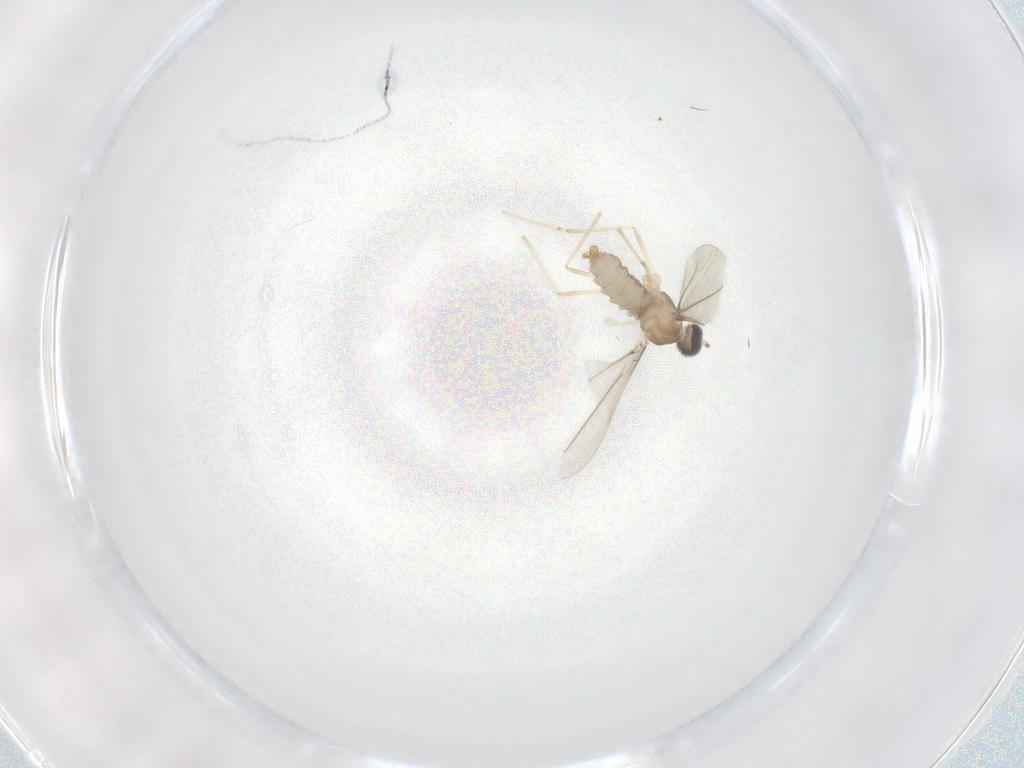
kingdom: Animalia
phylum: Arthropoda
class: Insecta
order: Diptera
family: Cecidomyiidae
